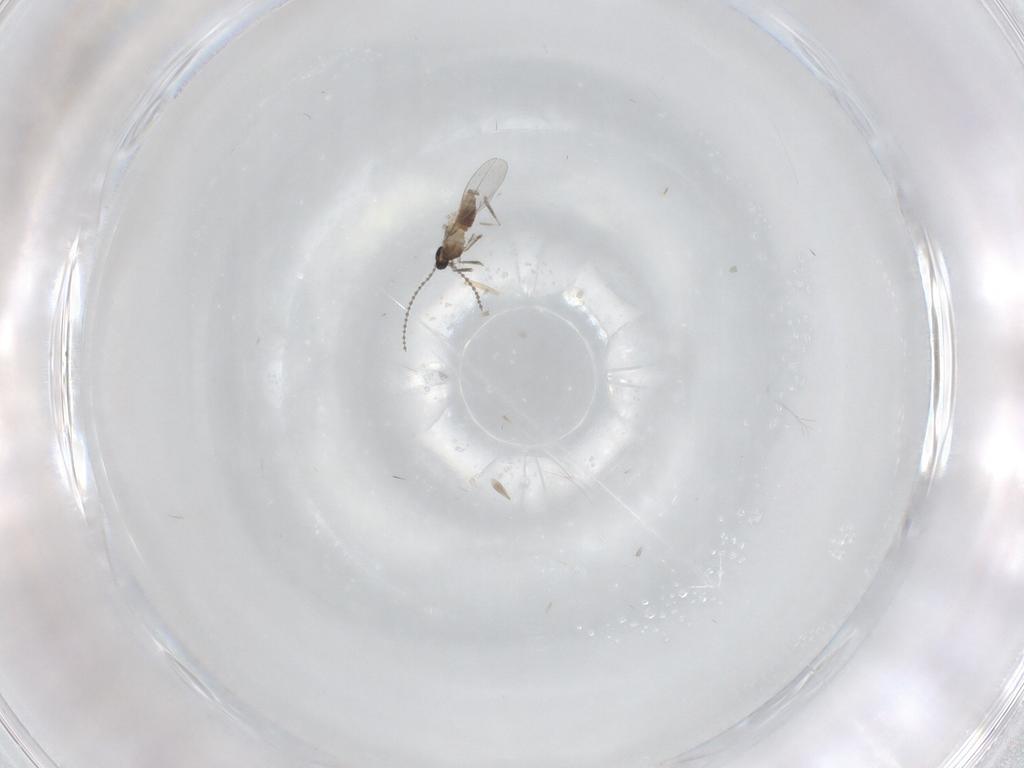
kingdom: Animalia
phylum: Arthropoda
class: Insecta
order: Diptera
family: Cecidomyiidae
